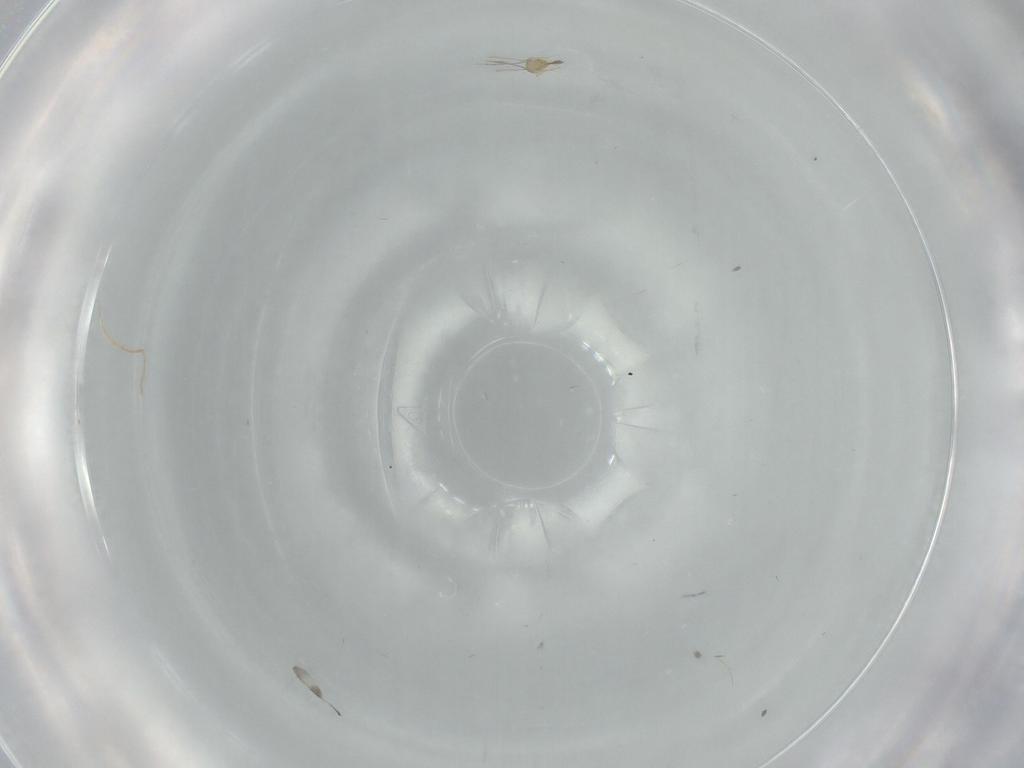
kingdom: Animalia
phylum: Arthropoda
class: Insecta
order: Hymenoptera
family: Mymaridae
